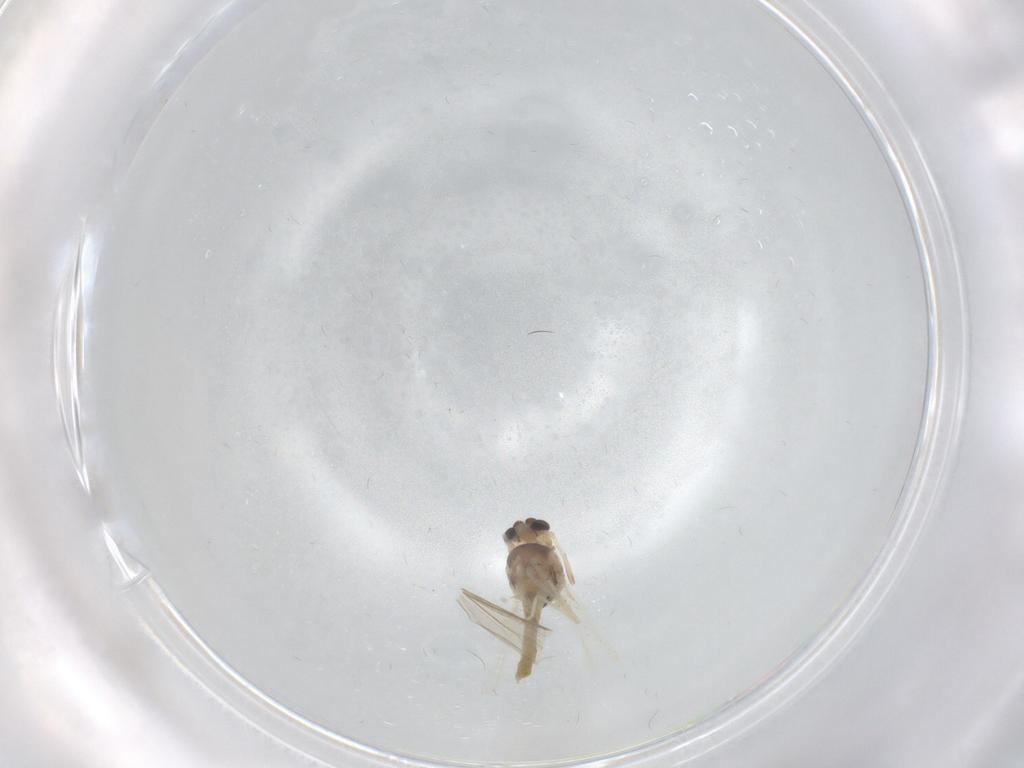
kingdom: Animalia
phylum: Arthropoda
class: Insecta
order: Diptera
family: Chironomidae
